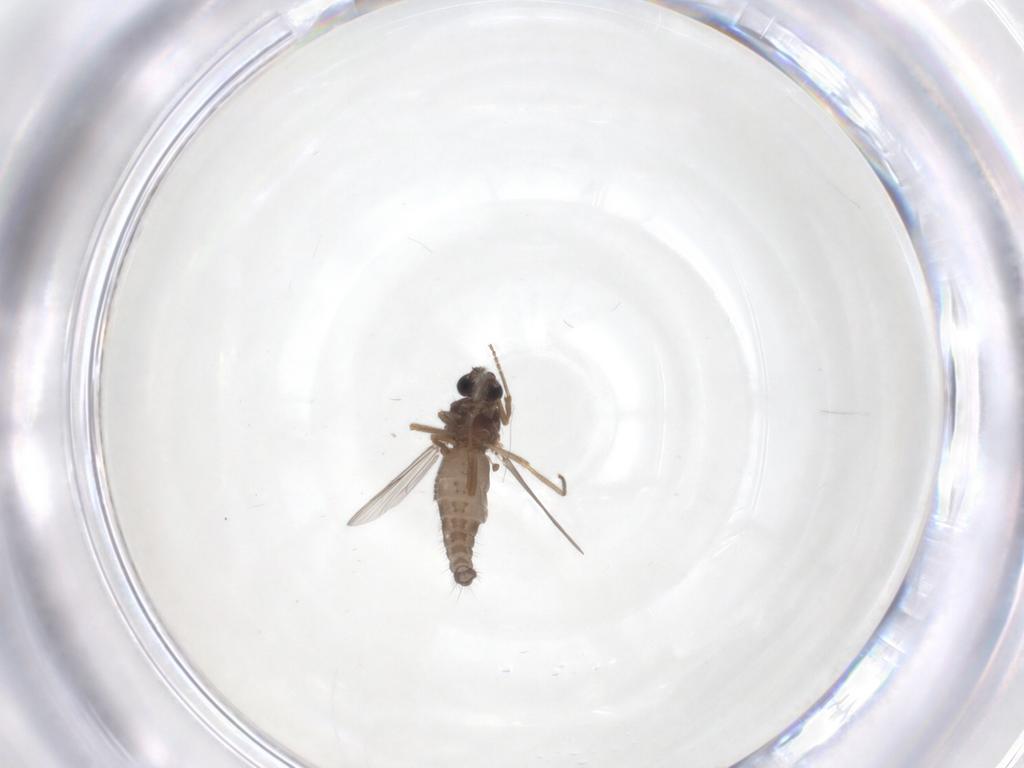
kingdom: Animalia
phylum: Arthropoda
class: Insecta
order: Diptera
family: Ceratopogonidae
